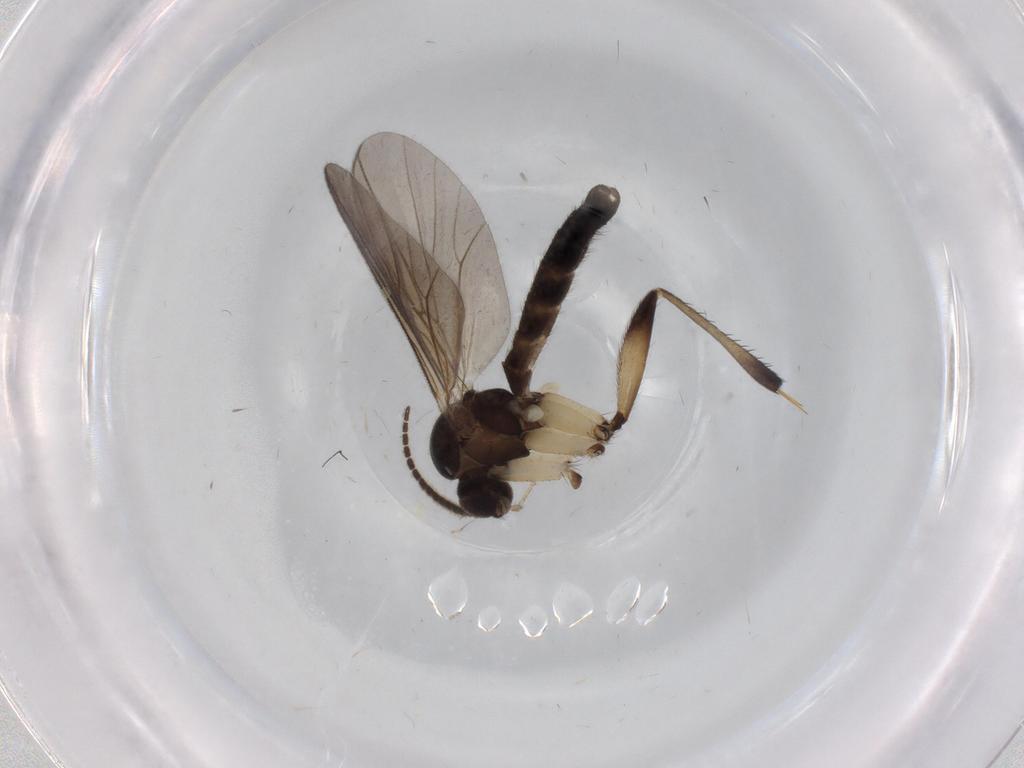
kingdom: Animalia
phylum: Arthropoda
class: Insecta
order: Diptera
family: Mycetophilidae
